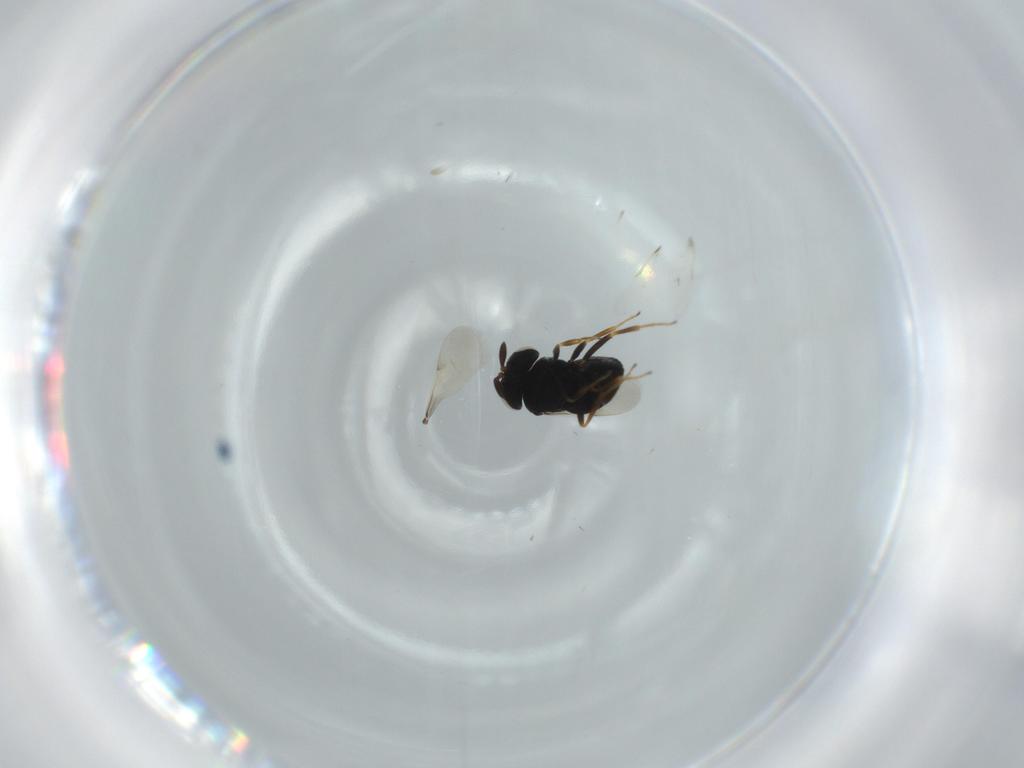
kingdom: Animalia
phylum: Arthropoda
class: Insecta
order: Hymenoptera
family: Scelionidae
